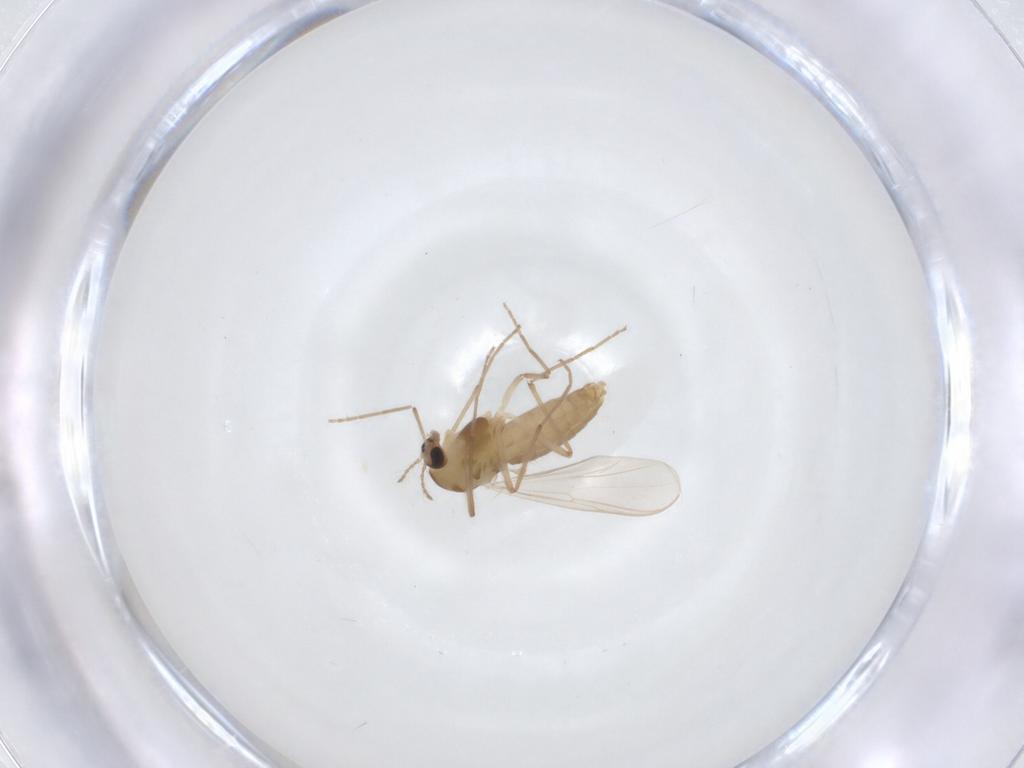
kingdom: Animalia
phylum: Arthropoda
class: Insecta
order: Diptera
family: Chironomidae
